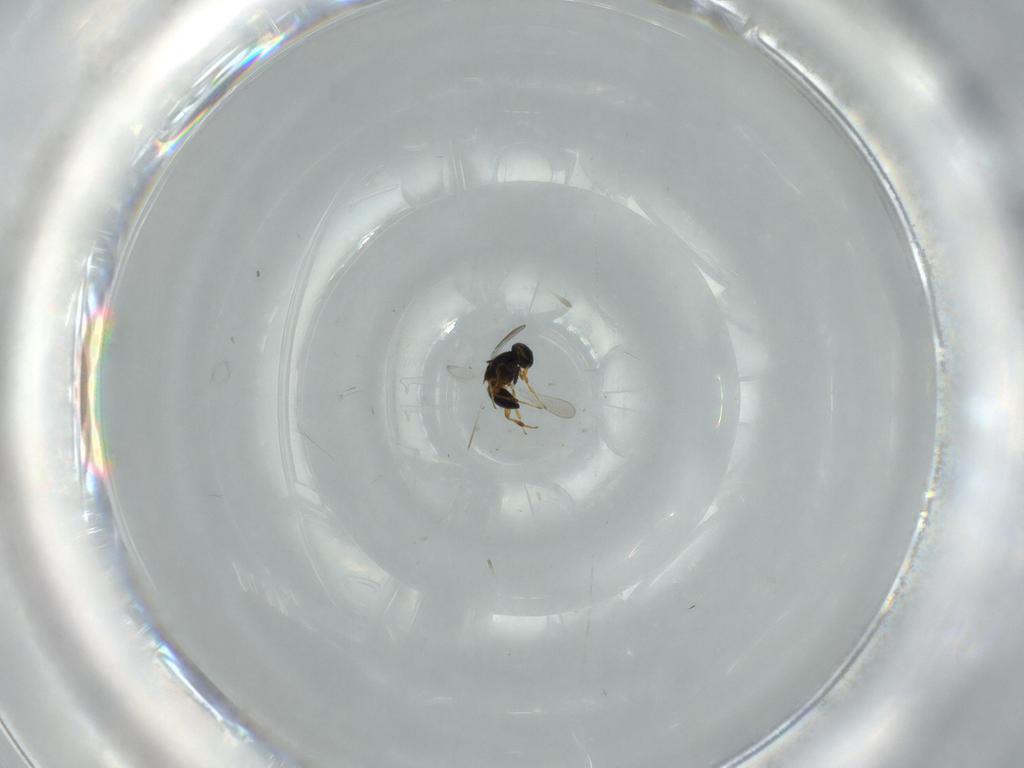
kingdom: Animalia
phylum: Arthropoda
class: Insecta
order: Hymenoptera
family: Platygastridae
